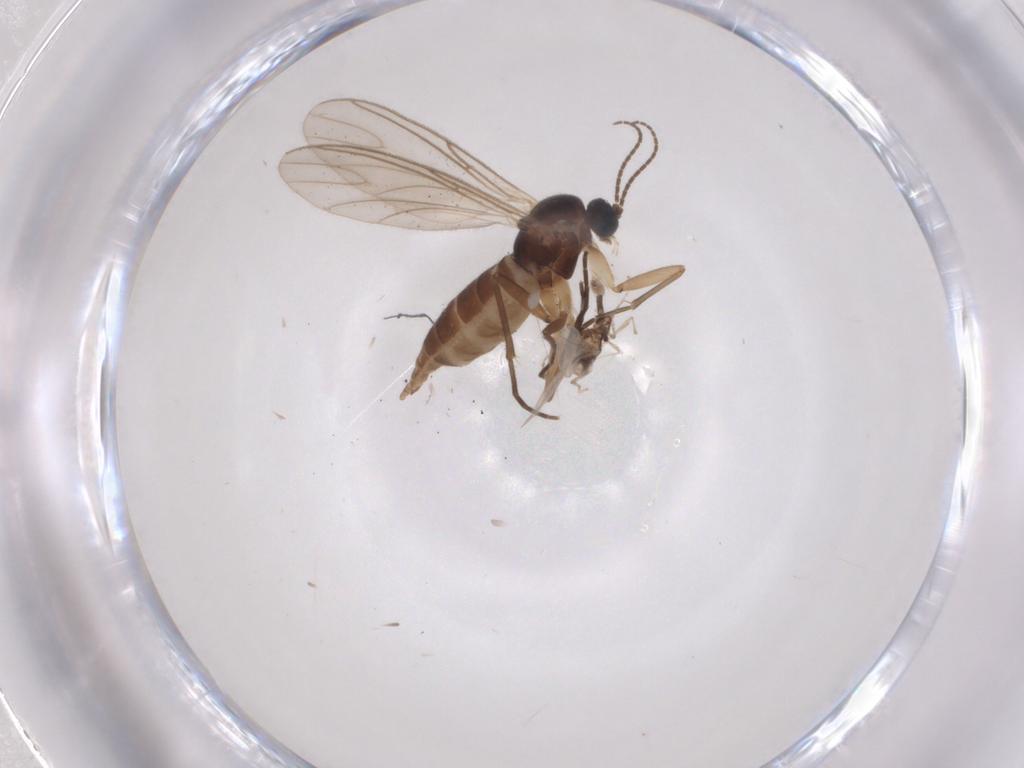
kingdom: Animalia
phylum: Arthropoda
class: Insecta
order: Diptera
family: Sciaridae
